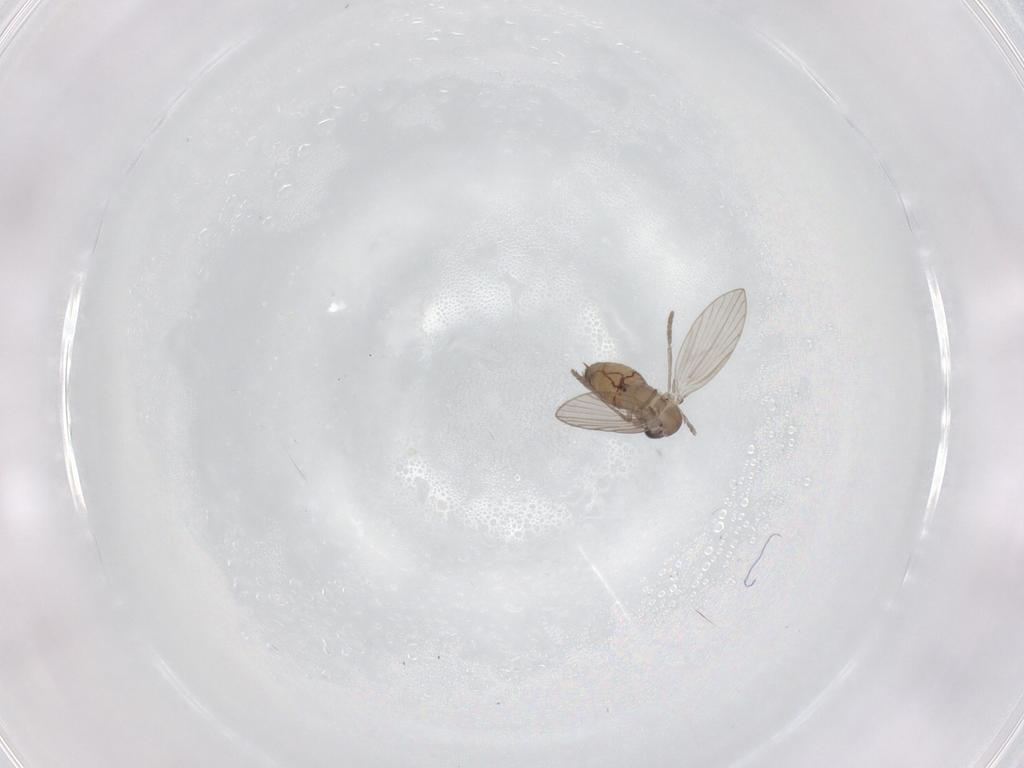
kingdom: Animalia
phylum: Arthropoda
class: Insecta
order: Diptera
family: Psychodidae
